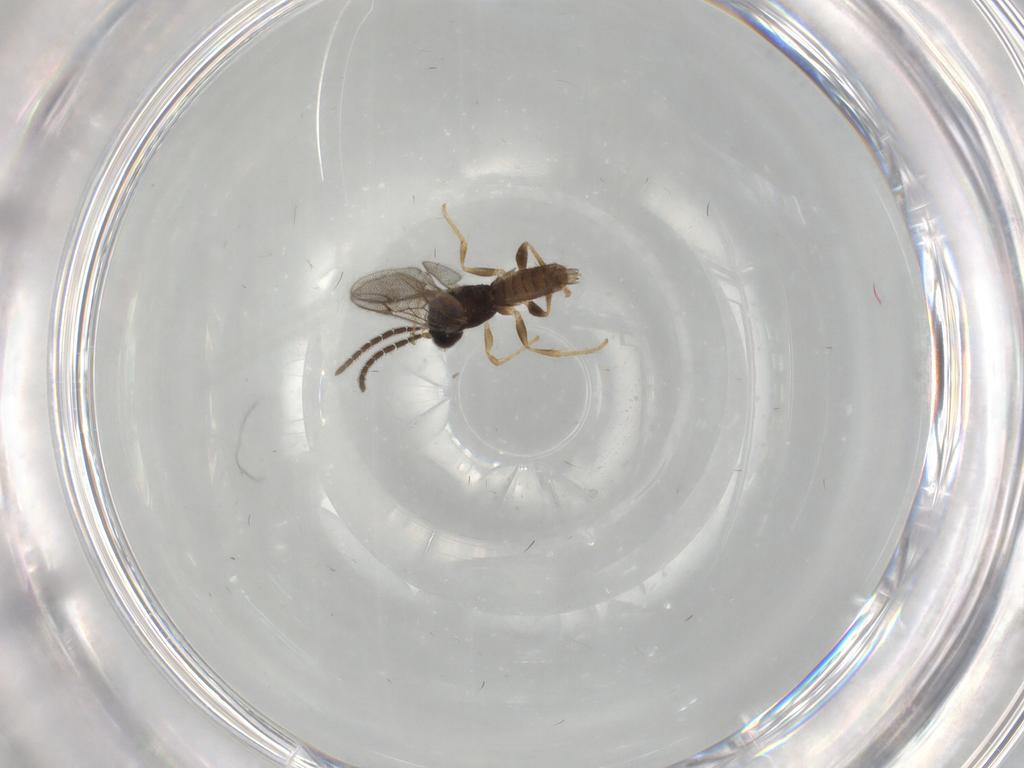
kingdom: Animalia
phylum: Arthropoda
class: Insecta
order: Hymenoptera
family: Dryinidae
